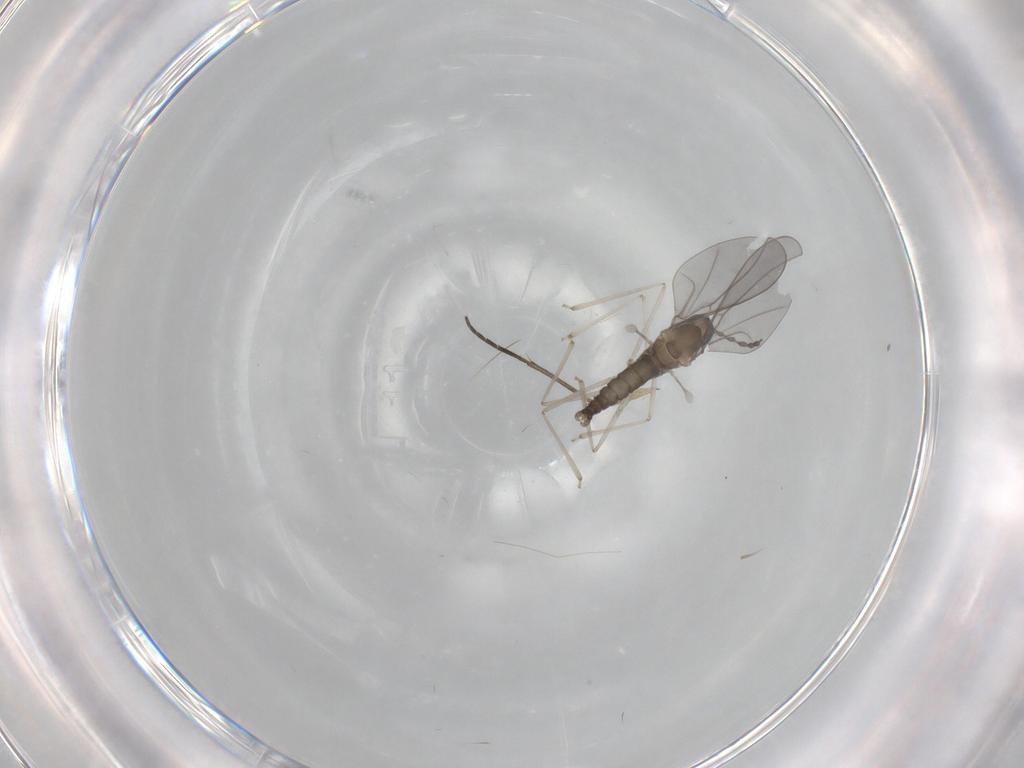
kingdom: Animalia
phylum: Arthropoda
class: Insecta
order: Diptera
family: Cecidomyiidae
